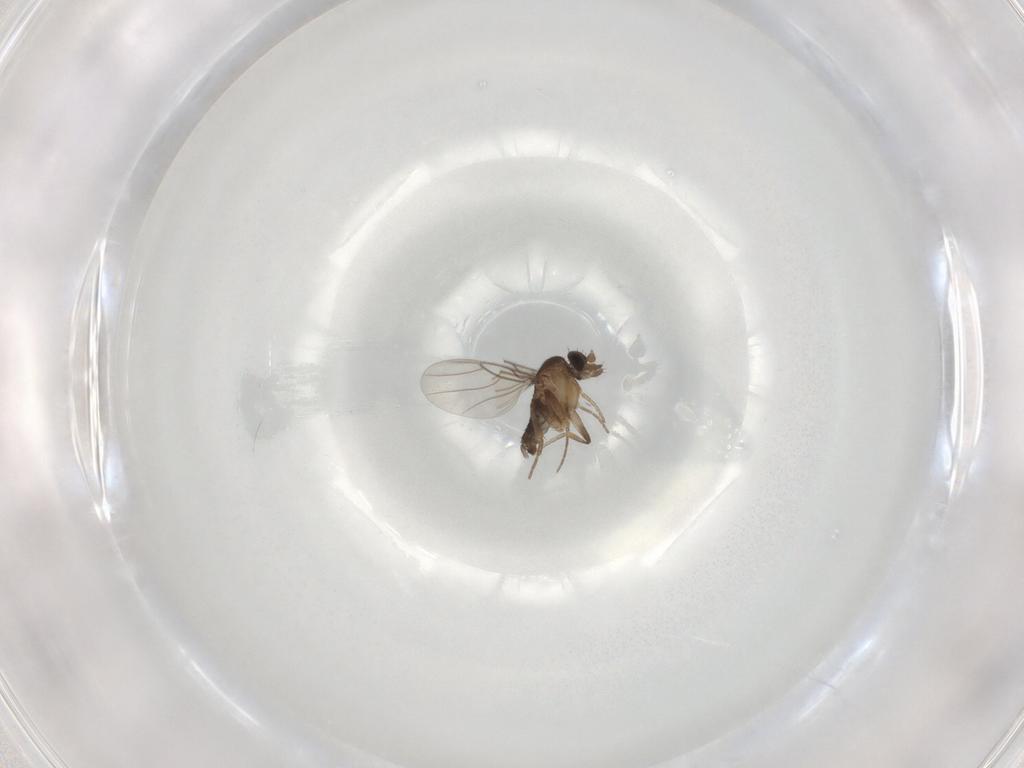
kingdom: Animalia
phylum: Arthropoda
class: Insecta
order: Diptera
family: Phoridae
